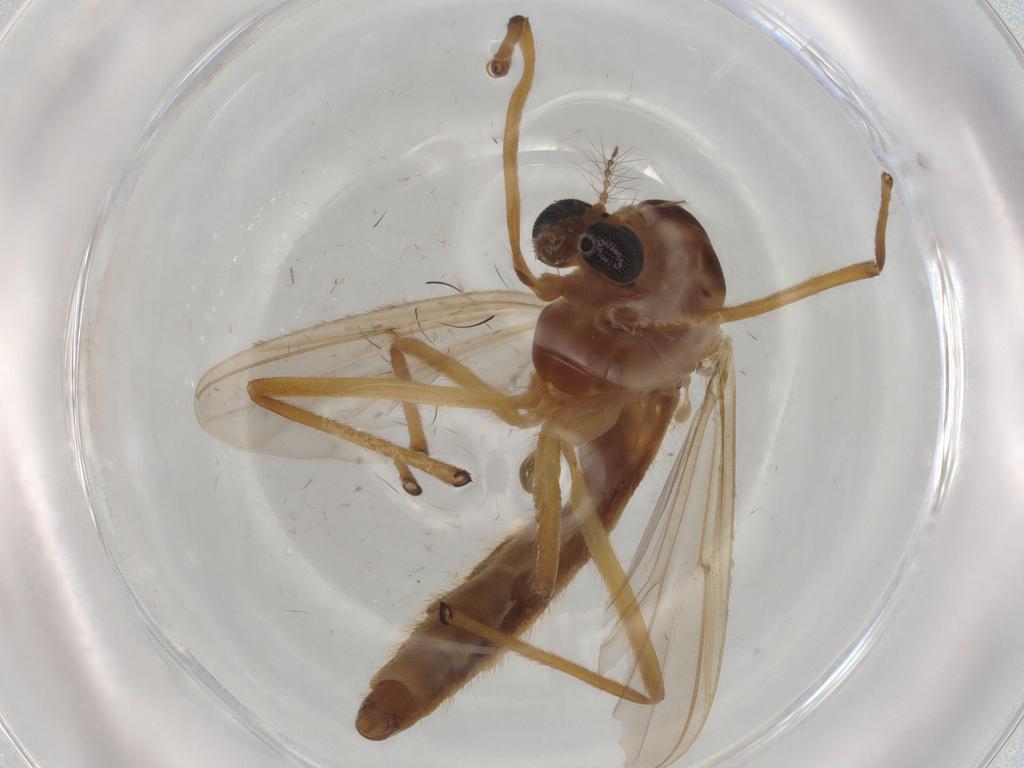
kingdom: Animalia
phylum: Arthropoda
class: Insecta
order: Diptera
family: Chironomidae
